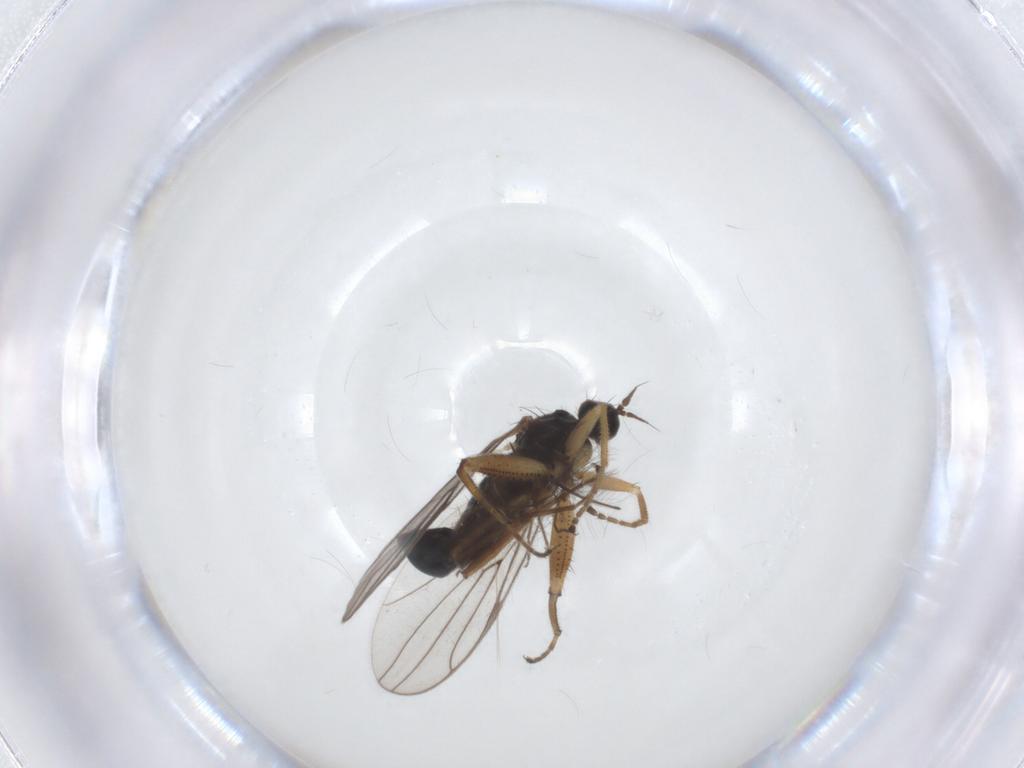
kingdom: Animalia
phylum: Arthropoda
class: Insecta
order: Diptera
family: Hybotidae
